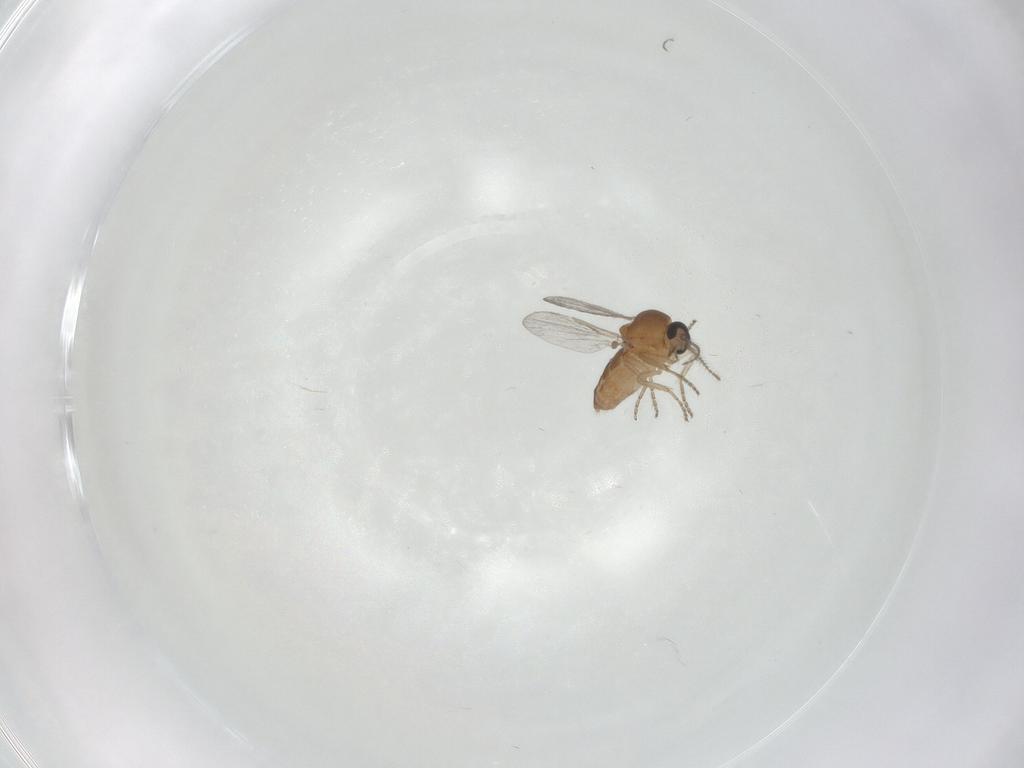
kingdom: Animalia
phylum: Arthropoda
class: Insecta
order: Diptera
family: Ceratopogonidae
